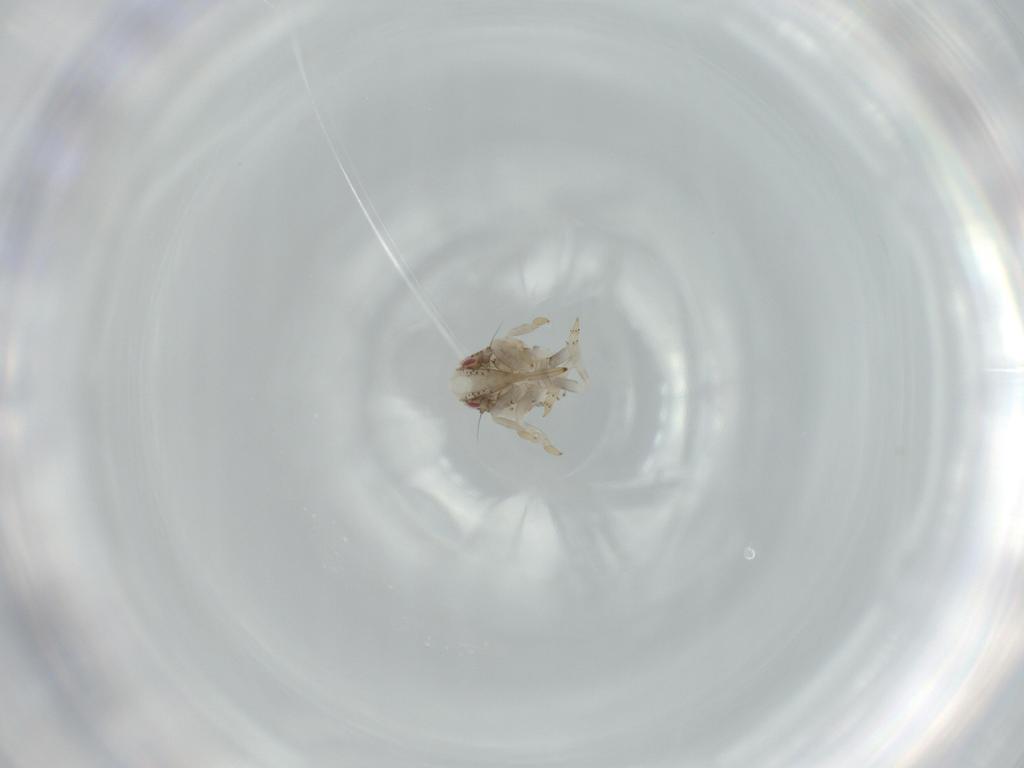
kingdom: Animalia
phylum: Arthropoda
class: Insecta
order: Hemiptera
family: Acanaloniidae
